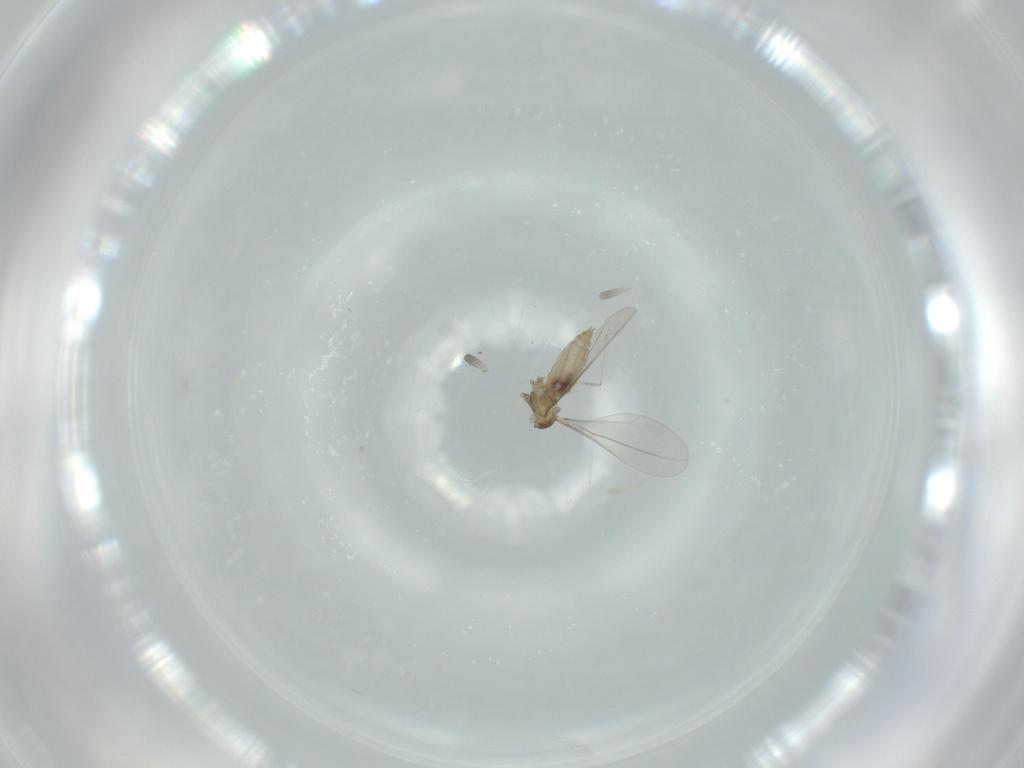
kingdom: Animalia
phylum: Arthropoda
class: Insecta
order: Diptera
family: Cecidomyiidae
